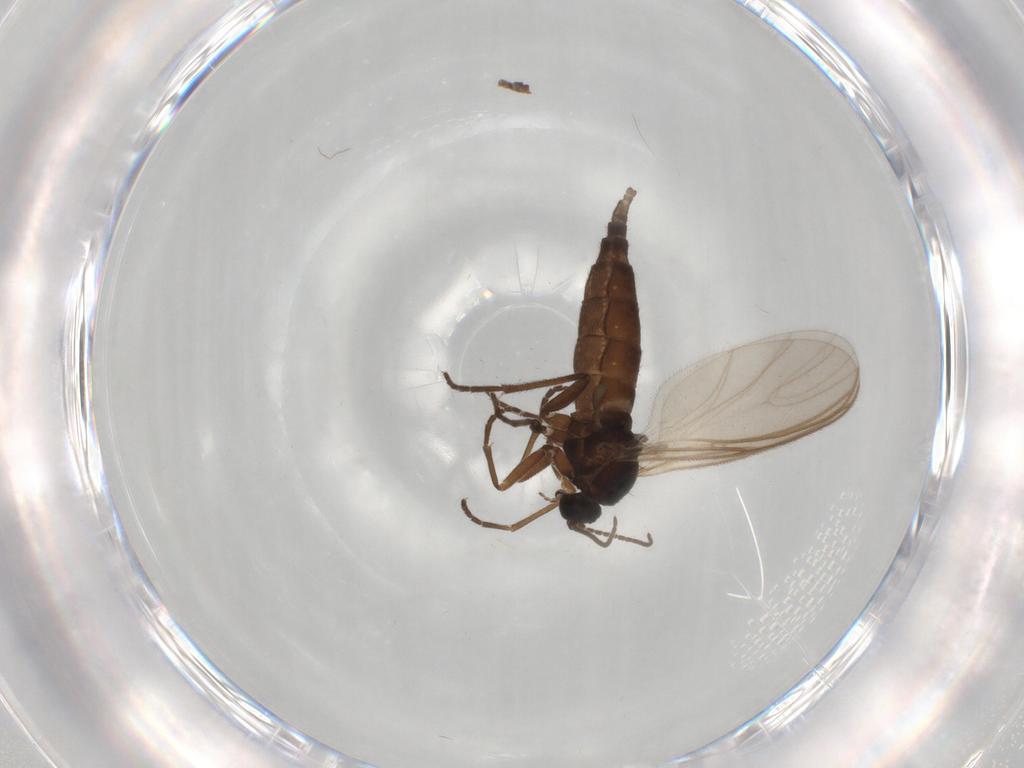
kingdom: Animalia
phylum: Arthropoda
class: Insecta
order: Diptera
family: Sciaridae
